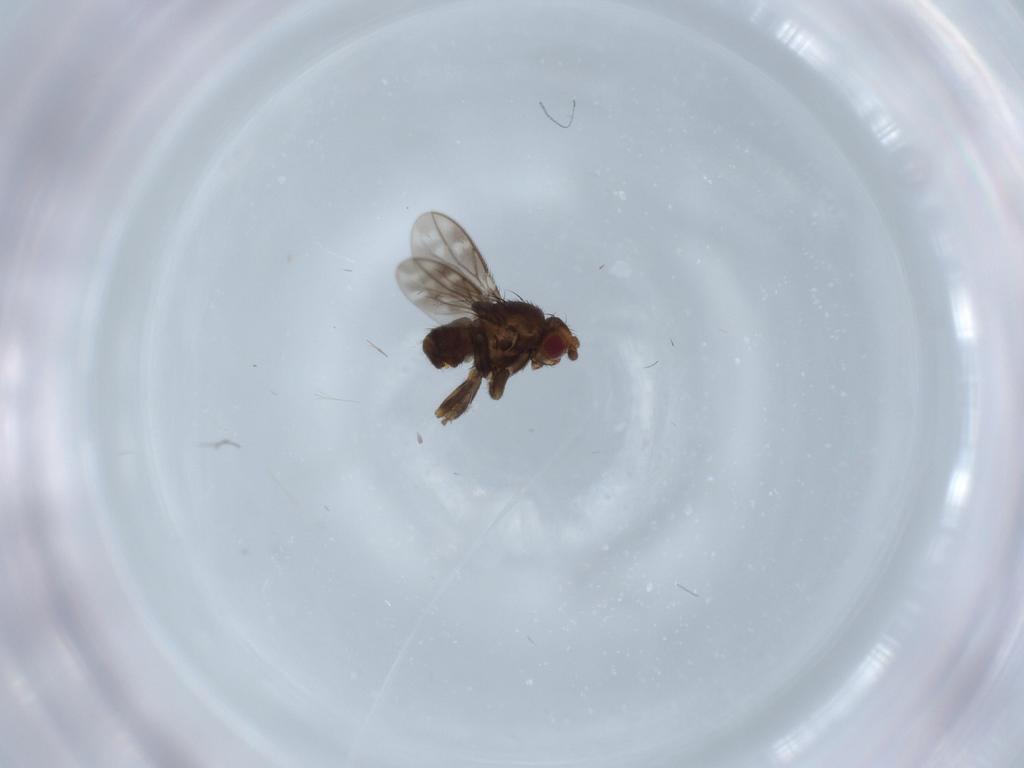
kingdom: Animalia
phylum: Arthropoda
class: Insecta
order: Diptera
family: Sphaeroceridae
